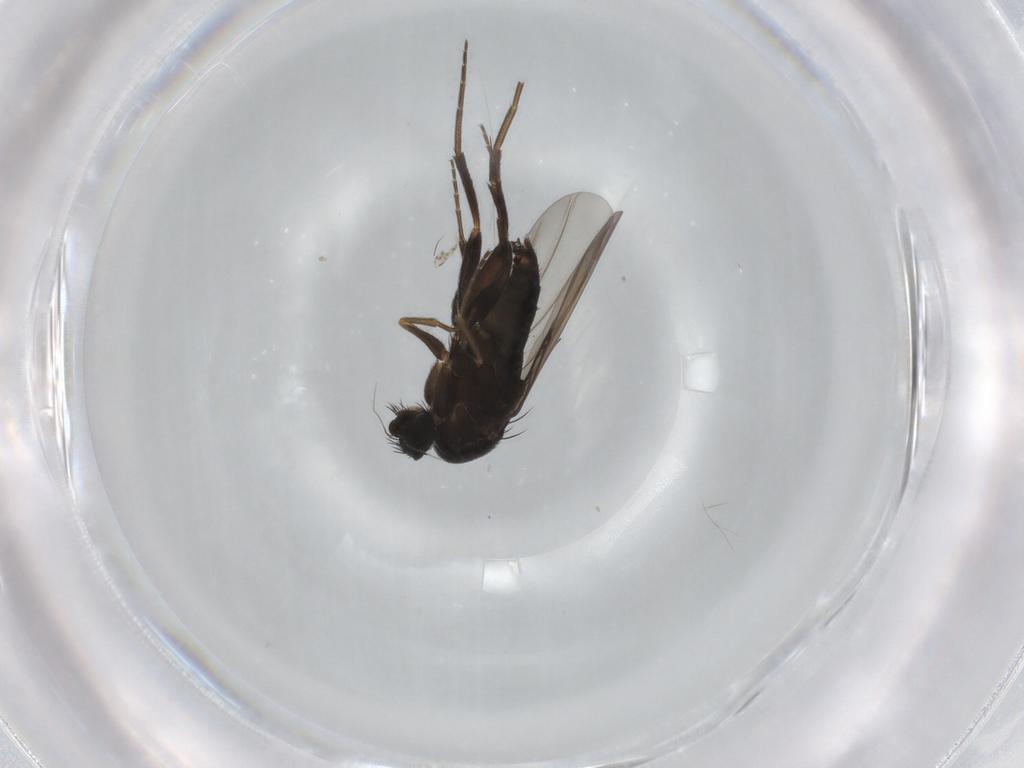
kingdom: Animalia
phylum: Arthropoda
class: Insecta
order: Diptera
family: Phoridae
